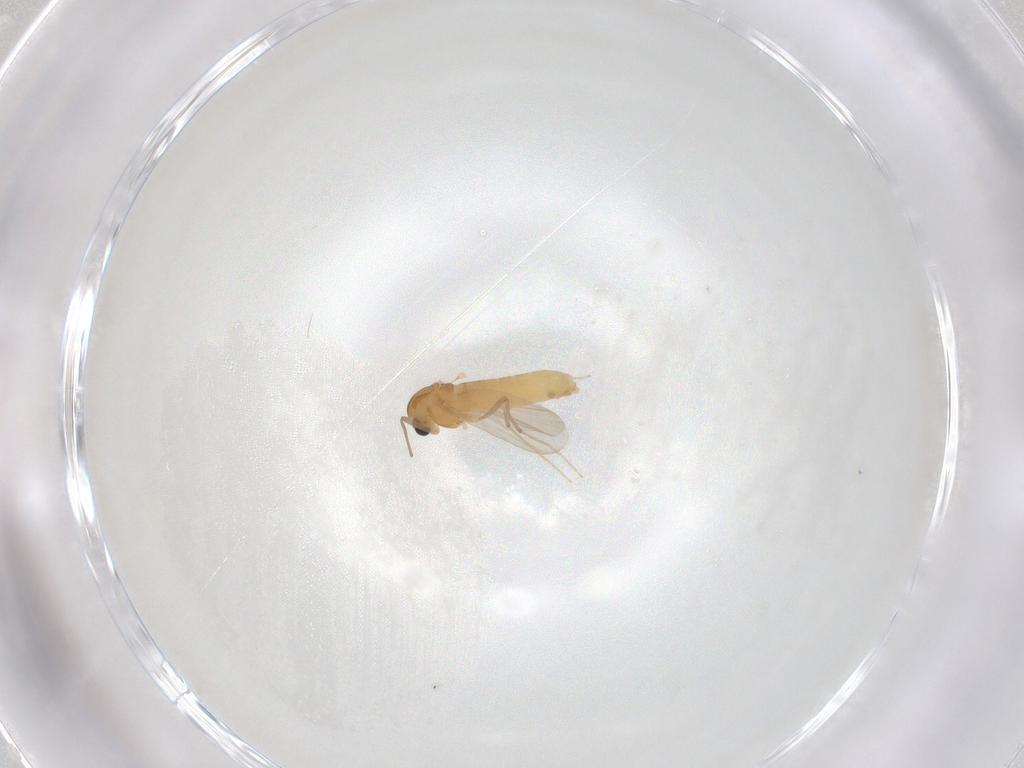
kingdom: Animalia
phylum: Arthropoda
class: Insecta
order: Diptera
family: Chironomidae
